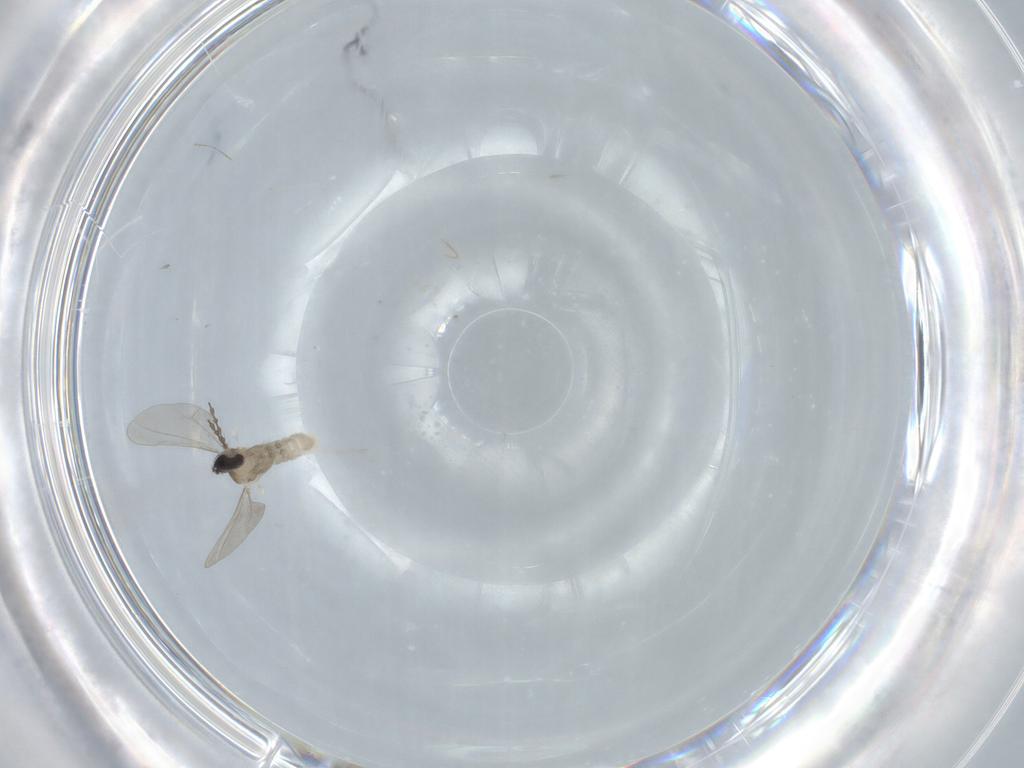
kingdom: Animalia
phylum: Arthropoda
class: Insecta
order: Diptera
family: Cecidomyiidae
